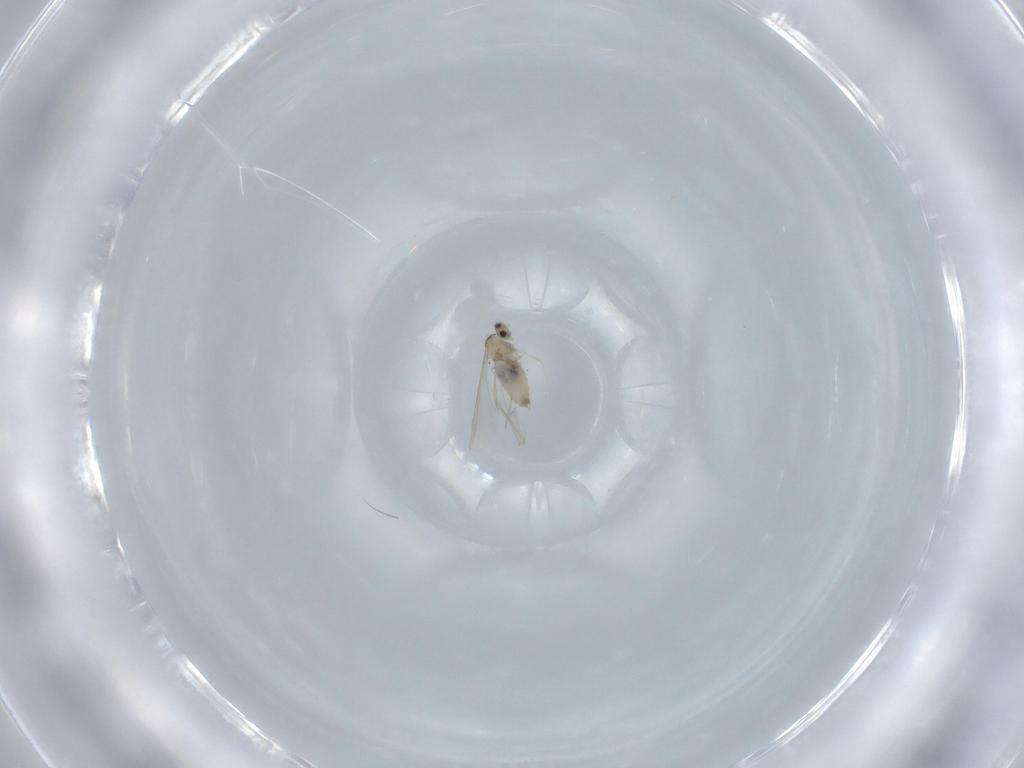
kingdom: Animalia
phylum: Arthropoda
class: Insecta
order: Diptera
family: Cecidomyiidae
